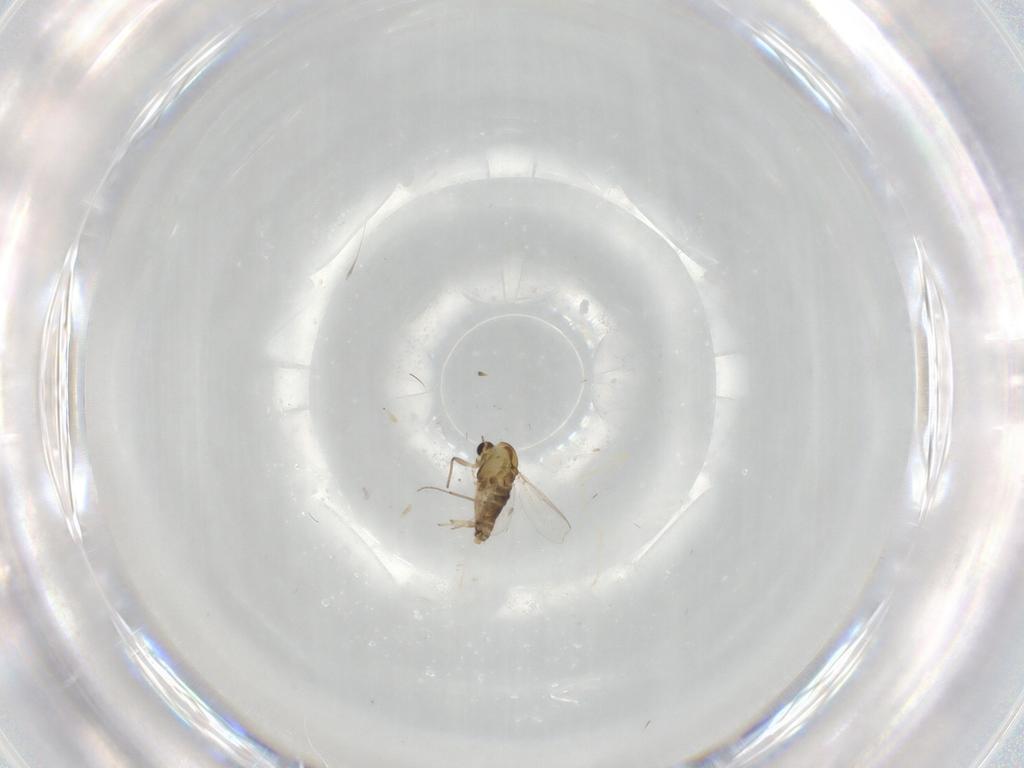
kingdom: Animalia
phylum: Arthropoda
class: Insecta
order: Diptera
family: Chironomidae
